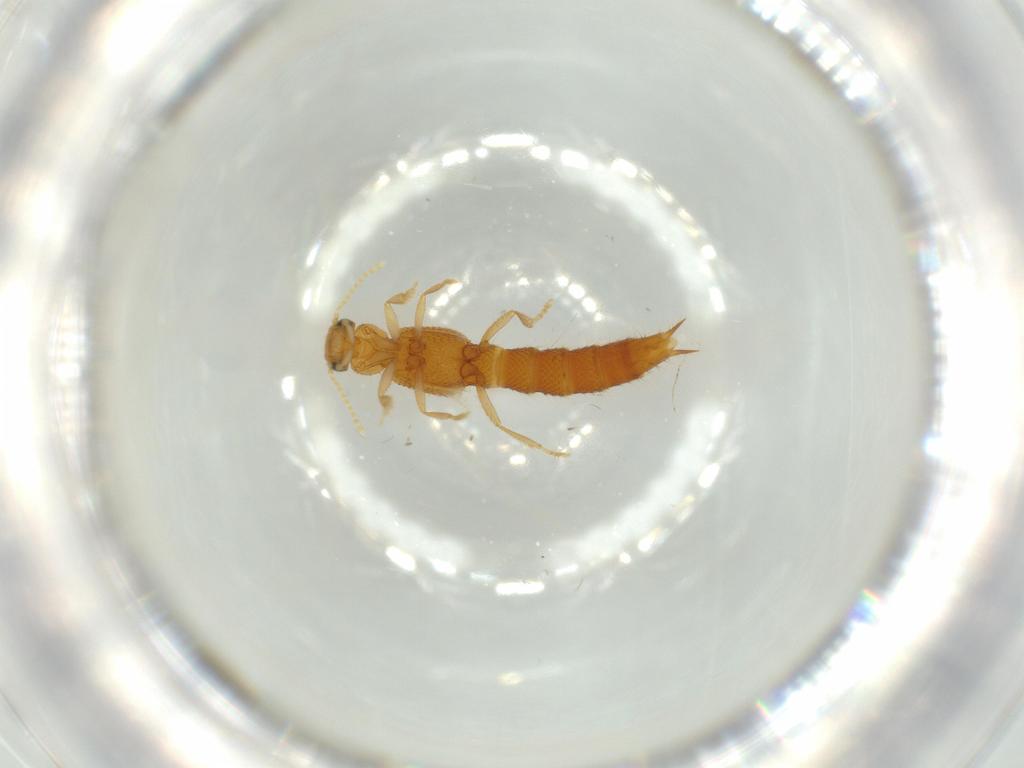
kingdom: Animalia
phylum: Arthropoda
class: Insecta
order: Coleoptera
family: Staphylinidae
